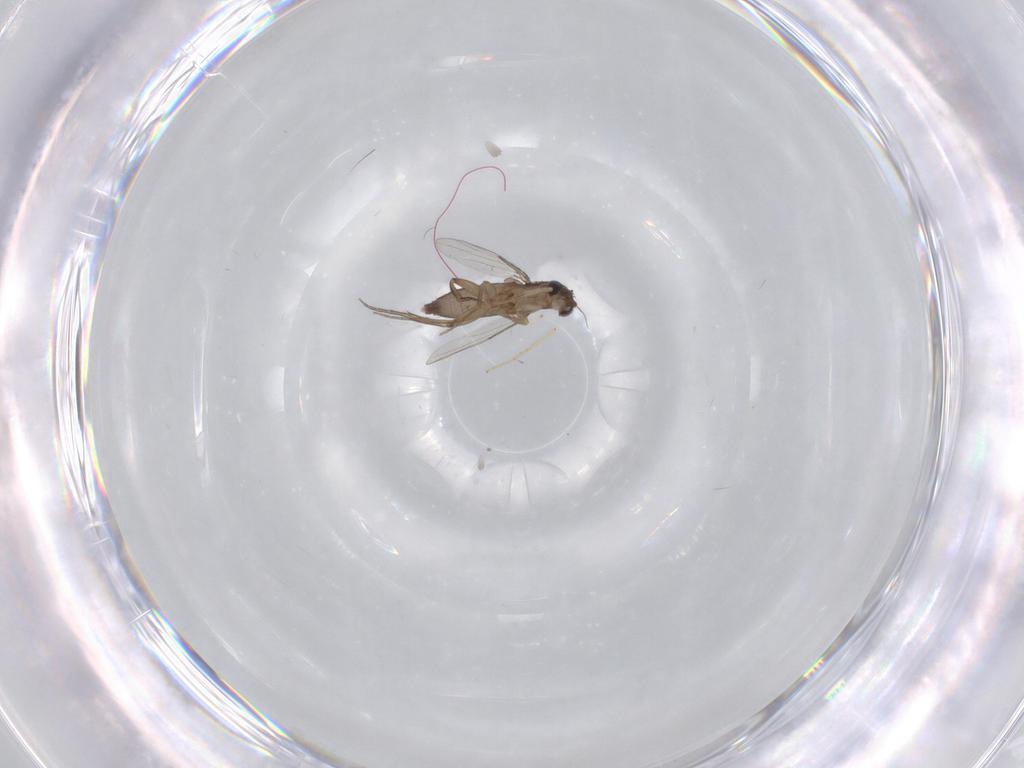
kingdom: Animalia
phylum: Arthropoda
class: Insecta
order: Diptera
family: Phoridae
